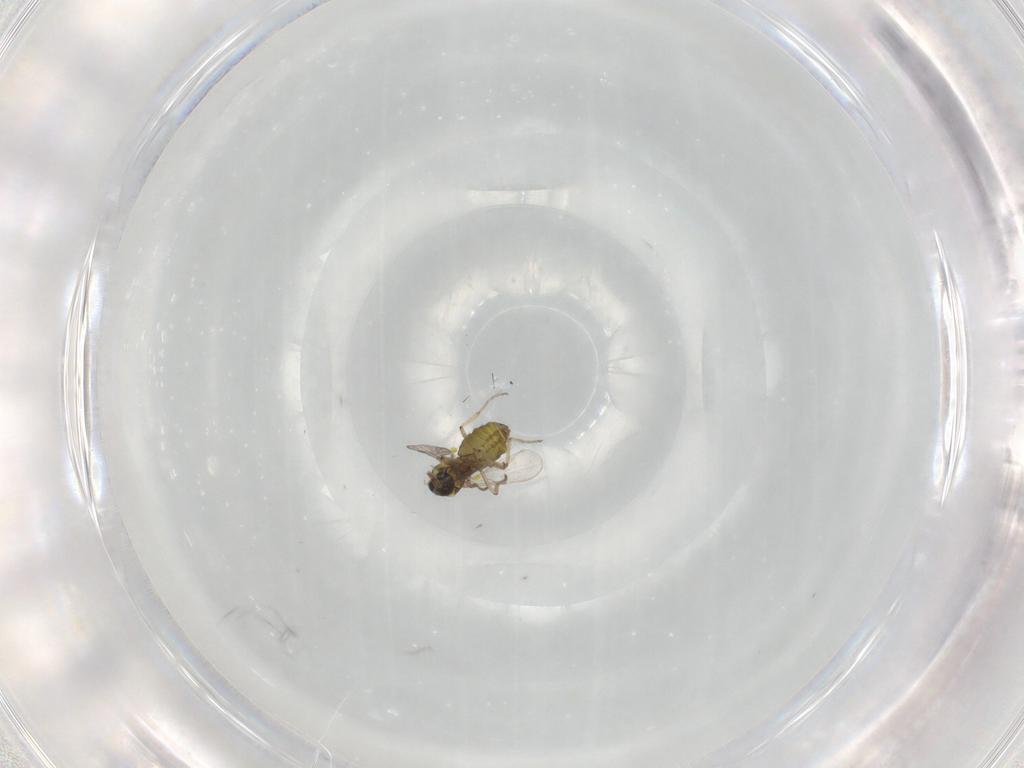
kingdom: Animalia
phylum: Arthropoda
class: Insecta
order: Diptera
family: Ceratopogonidae
